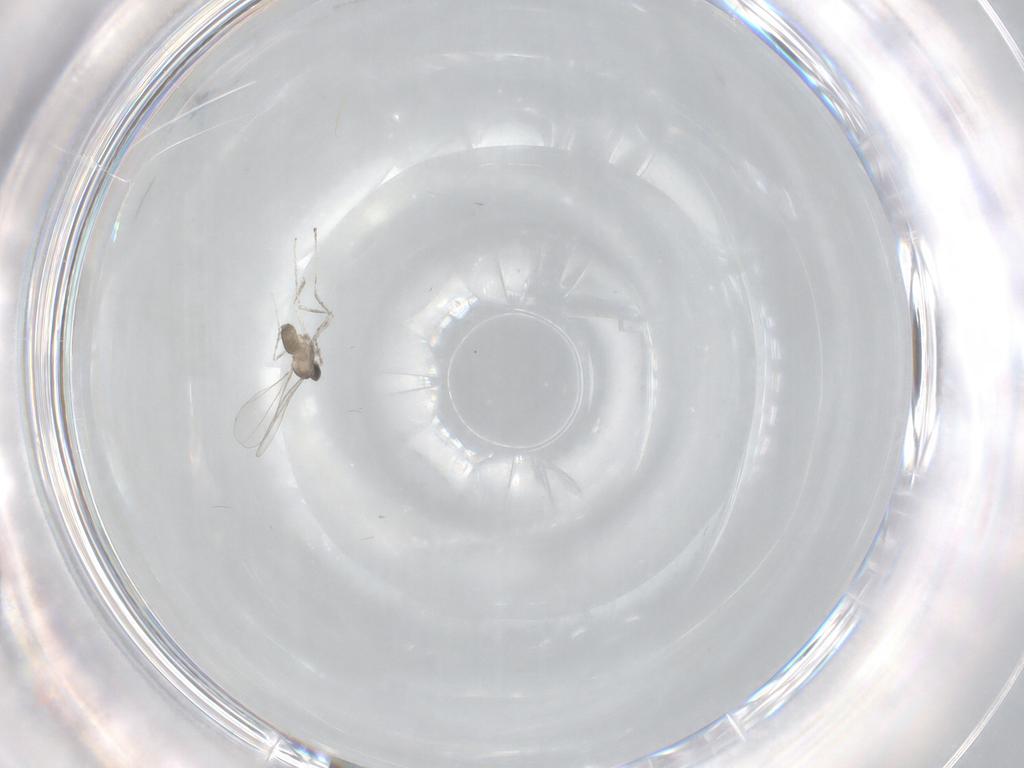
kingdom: Animalia
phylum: Arthropoda
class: Insecta
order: Diptera
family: Cecidomyiidae
